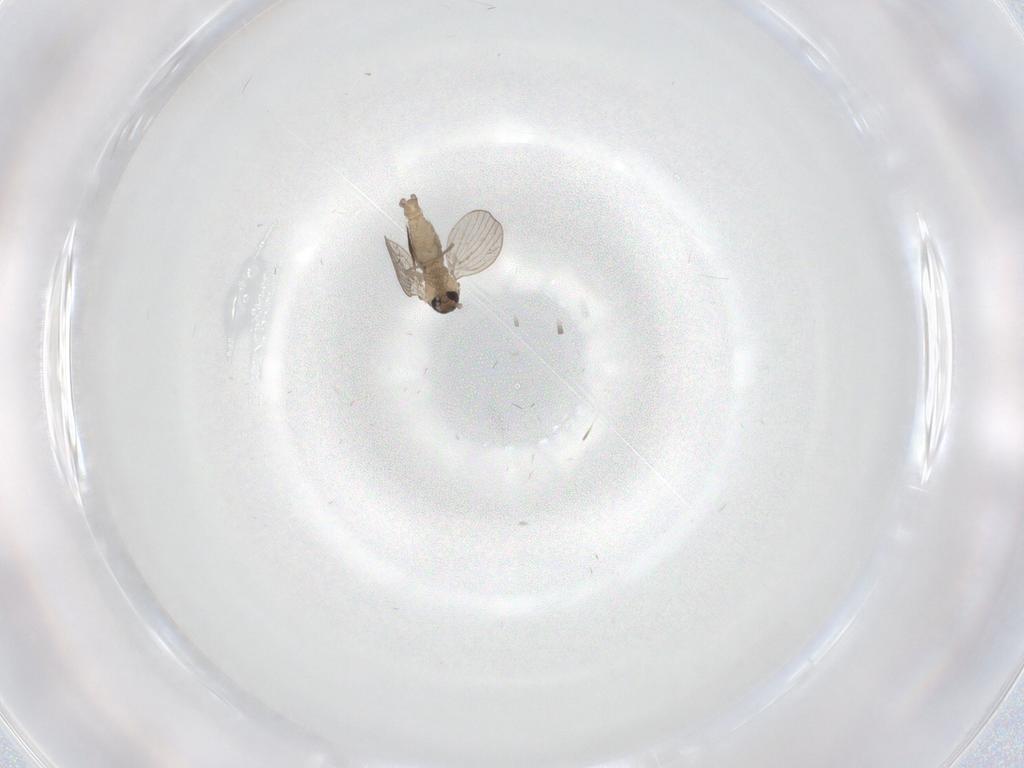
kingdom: Animalia
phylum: Arthropoda
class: Insecta
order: Diptera
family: Psychodidae
